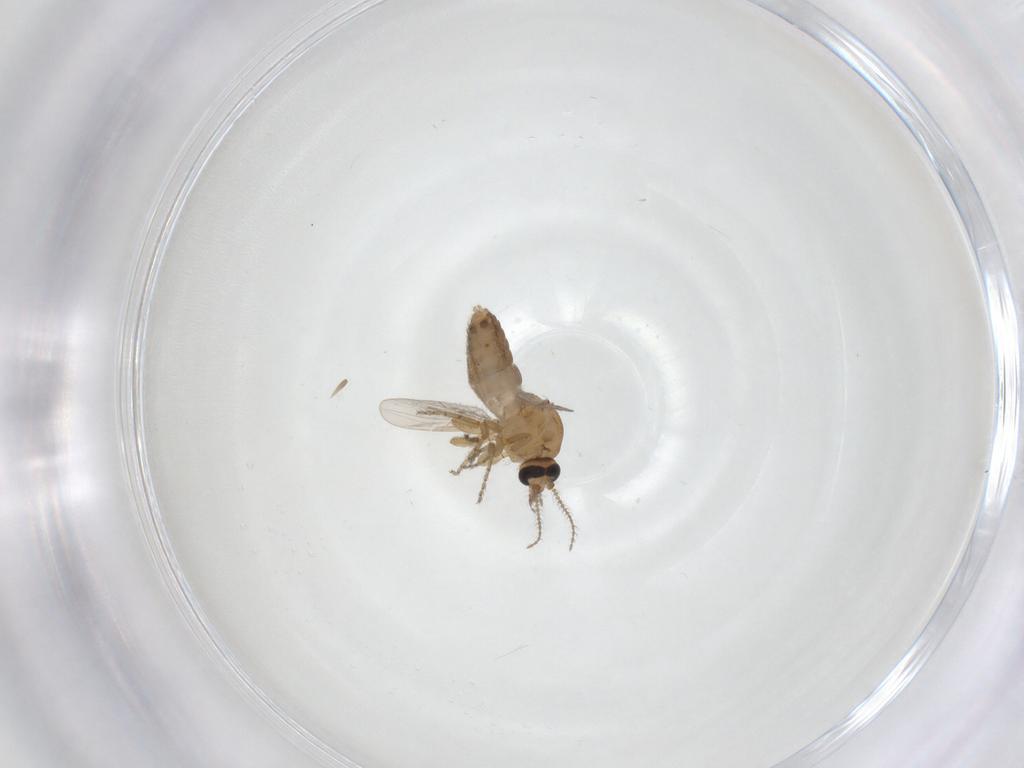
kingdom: Animalia
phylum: Arthropoda
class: Insecta
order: Diptera
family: Ceratopogonidae
